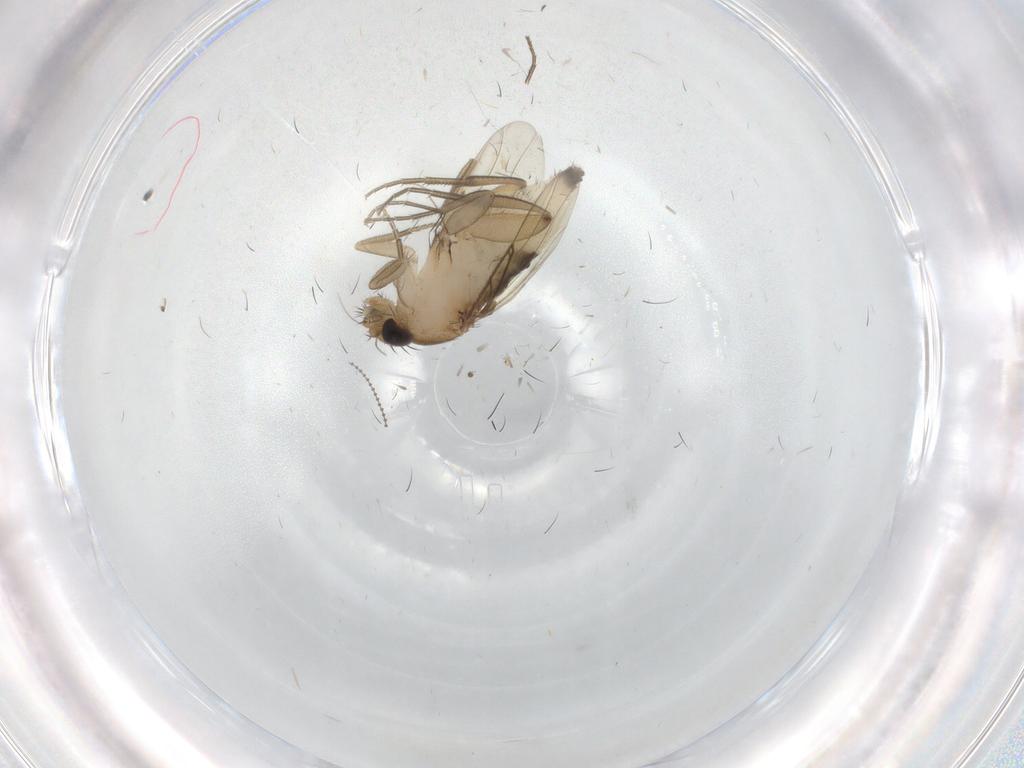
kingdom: Animalia
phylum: Arthropoda
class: Insecta
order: Diptera
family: Phoridae
